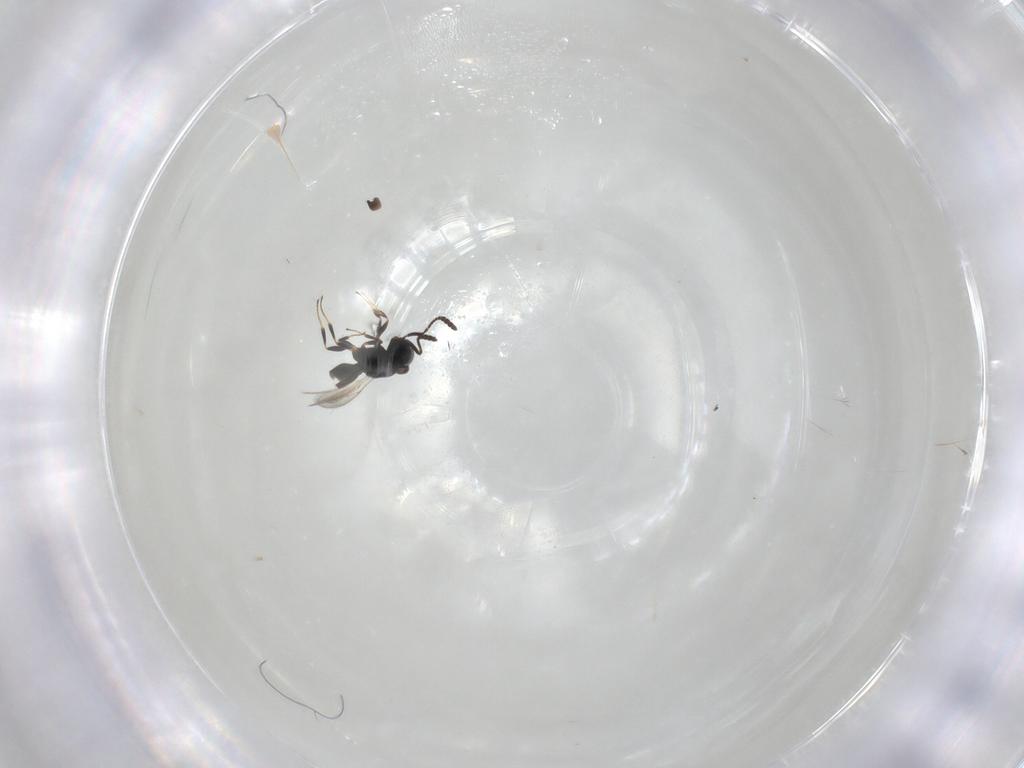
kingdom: Animalia
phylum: Arthropoda
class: Insecta
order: Hymenoptera
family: Scelionidae
